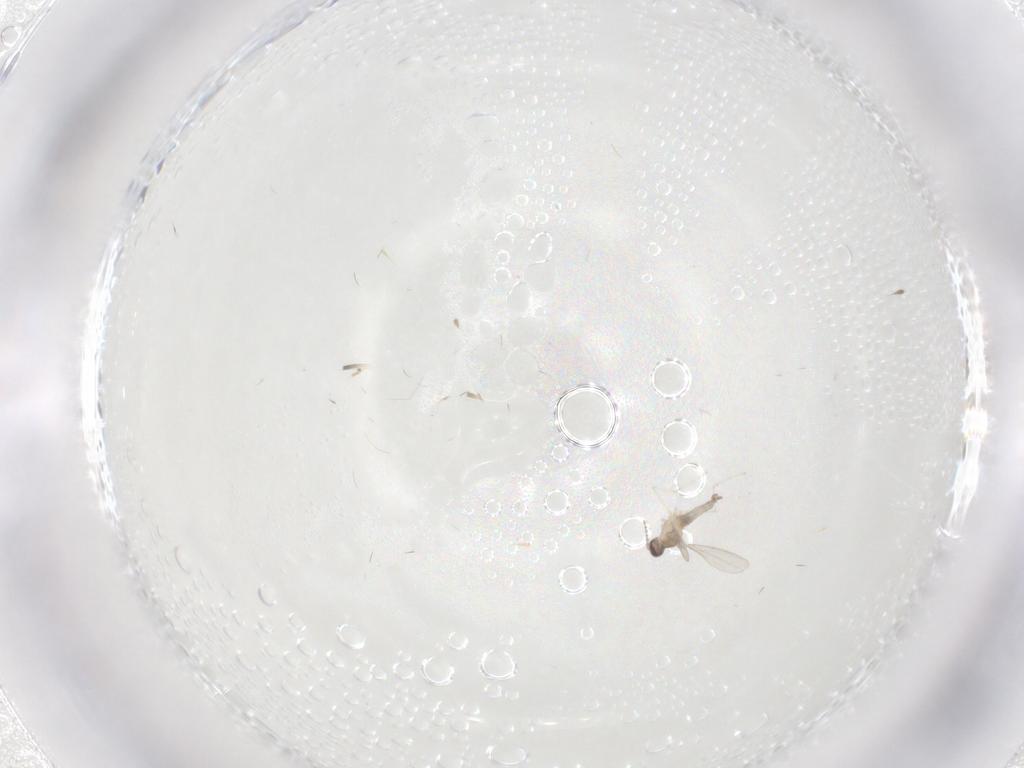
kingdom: Animalia
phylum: Arthropoda
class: Insecta
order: Diptera
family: Cecidomyiidae
